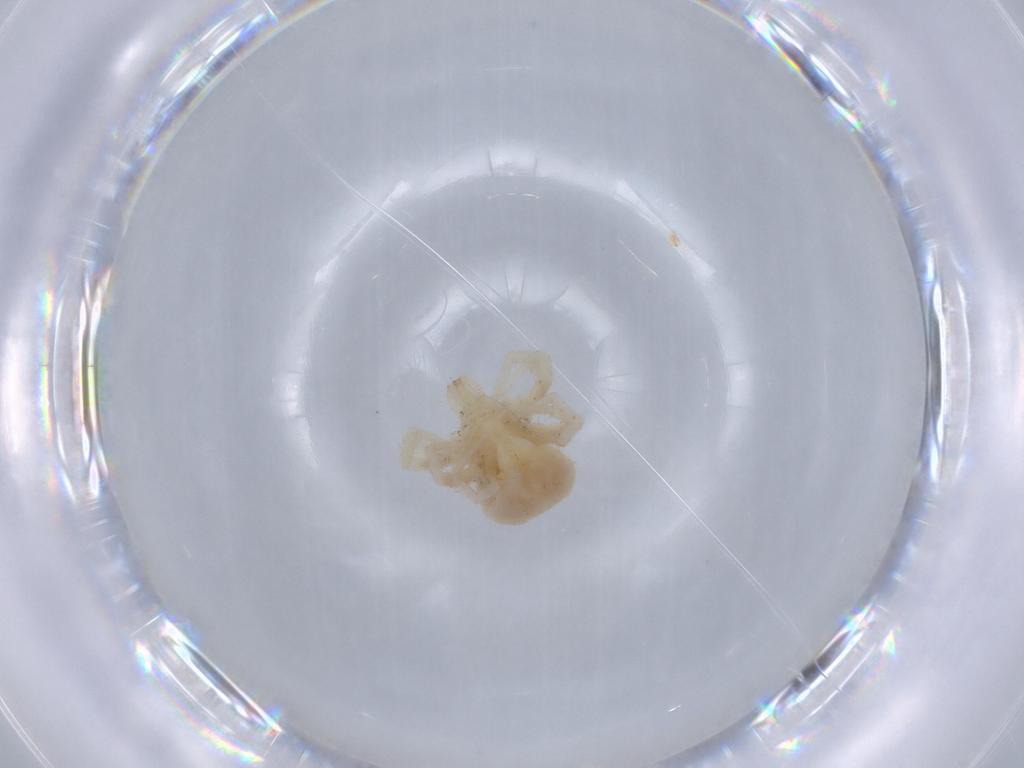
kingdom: Animalia
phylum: Arthropoda
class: Arachnida
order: Trombidiformes
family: Anystidae
